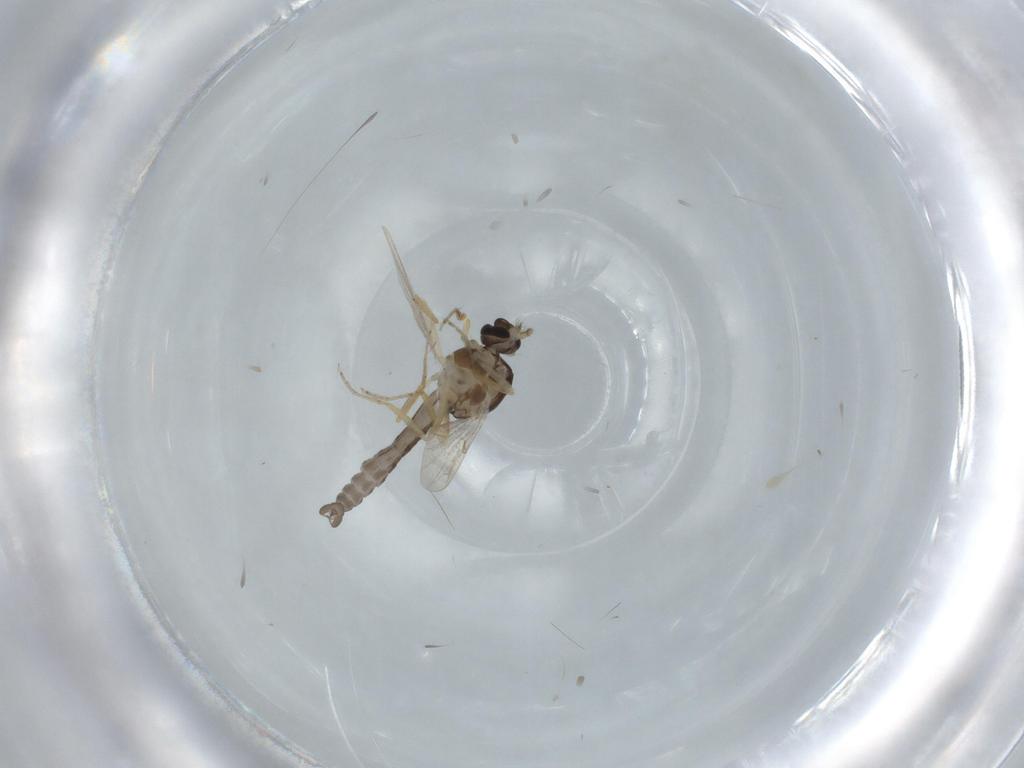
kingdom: Animalia
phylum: Arthropoda
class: Insecta
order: Diptera
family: Ceratopogonidae
